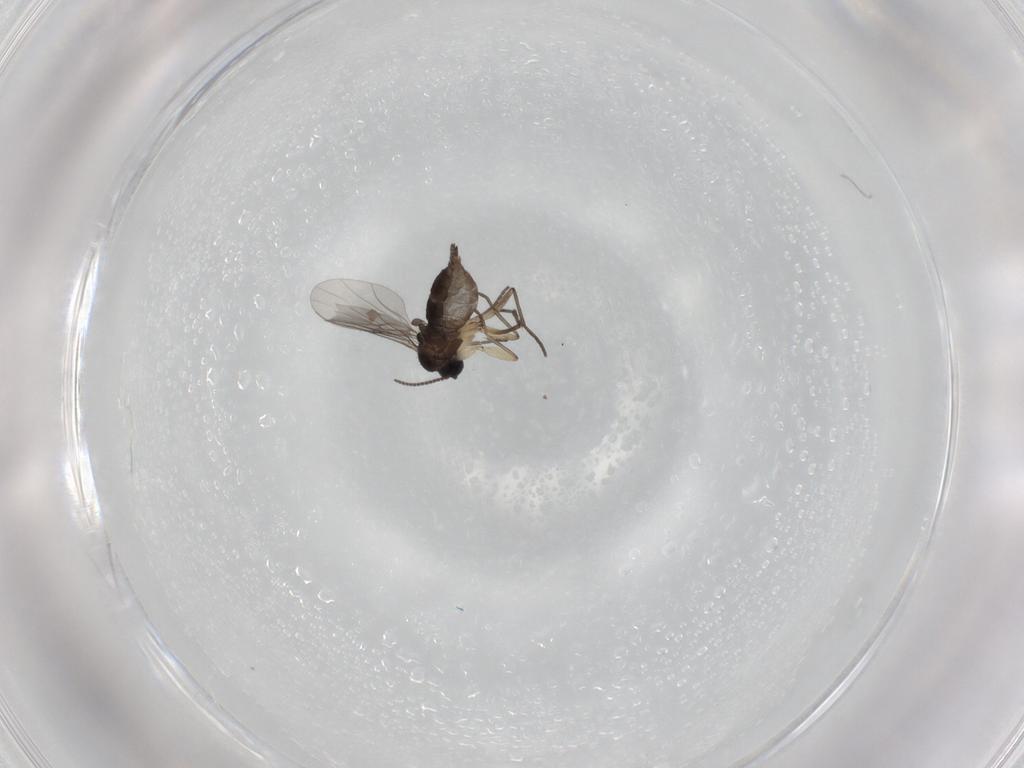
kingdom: Animalia
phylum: Arthropoda
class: Insecta
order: Diptera
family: Sciaridae
